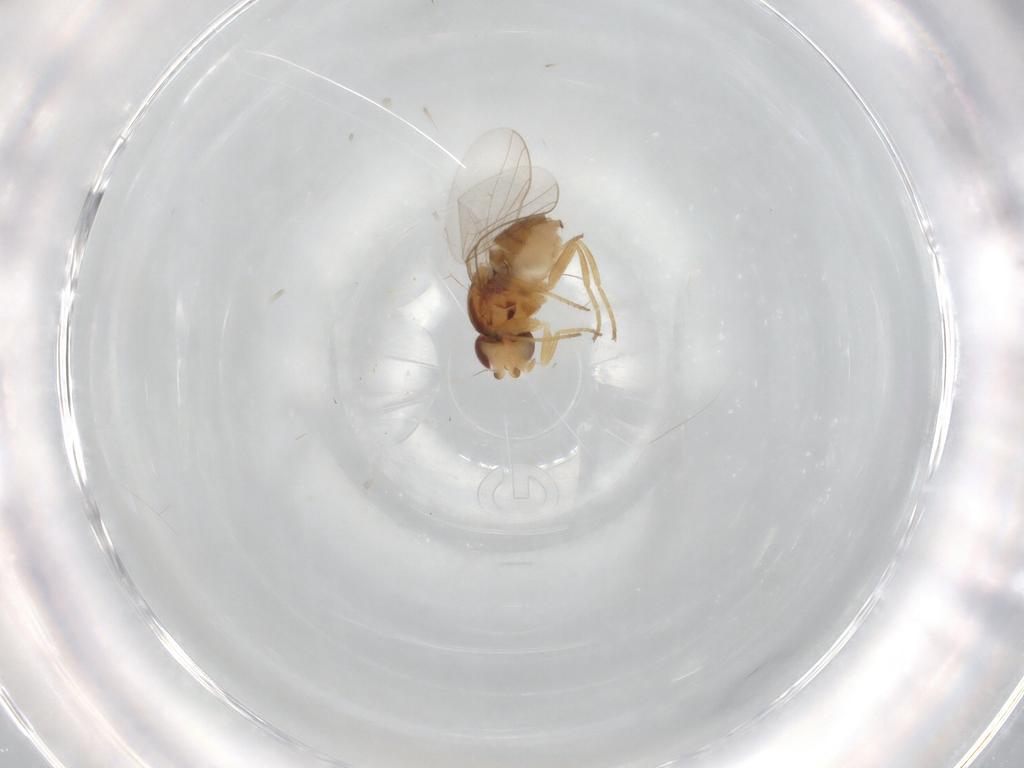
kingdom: Animalia
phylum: Arthropoda
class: Insecta
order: Diptera
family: Chloropidae
